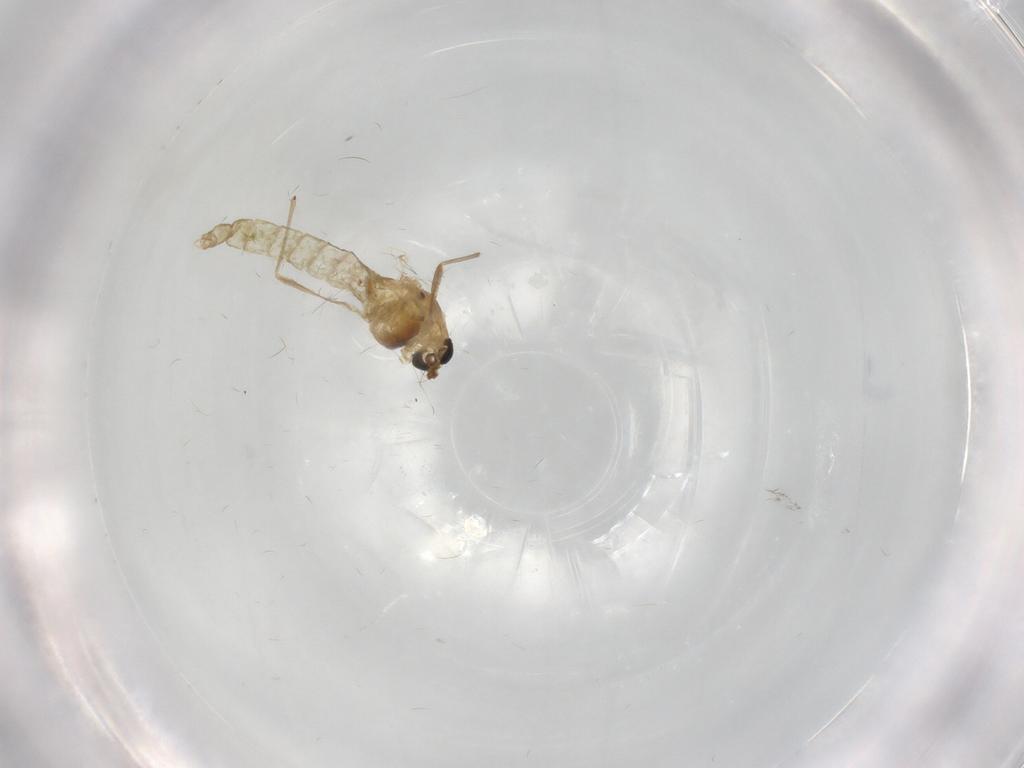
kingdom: Animalia
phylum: Arthropoda
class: Insecta
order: Diptera
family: Chironomidae
